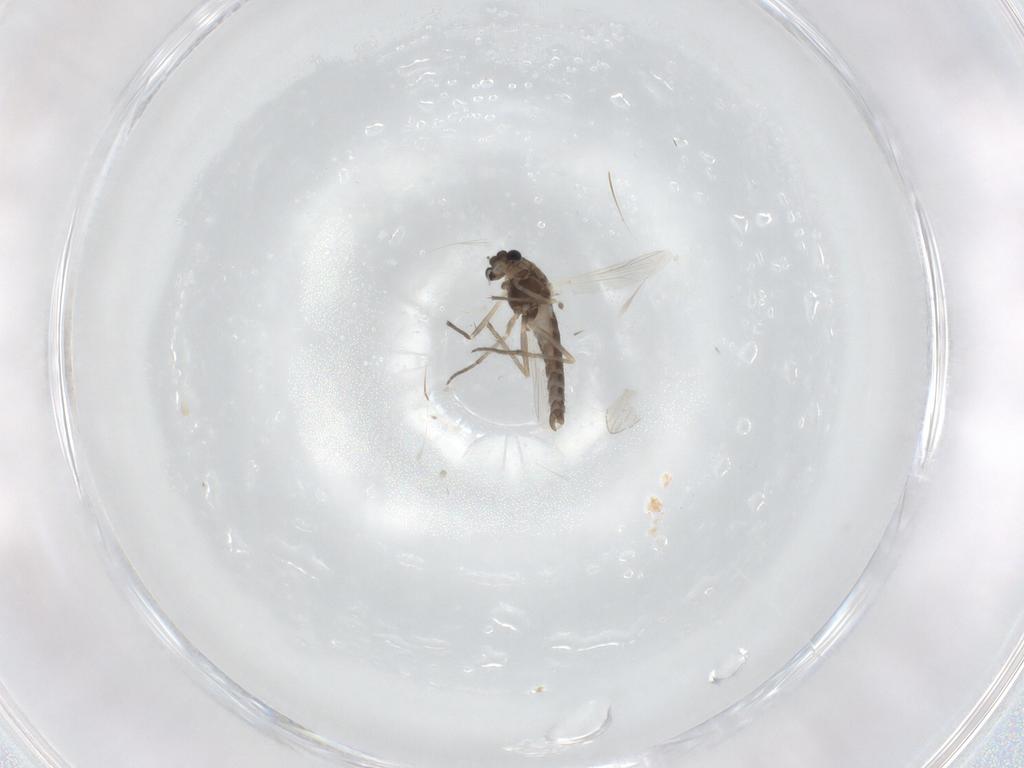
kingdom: Animalia
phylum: Arthropoda
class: Insecta
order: Diptera
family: Chironomidae
